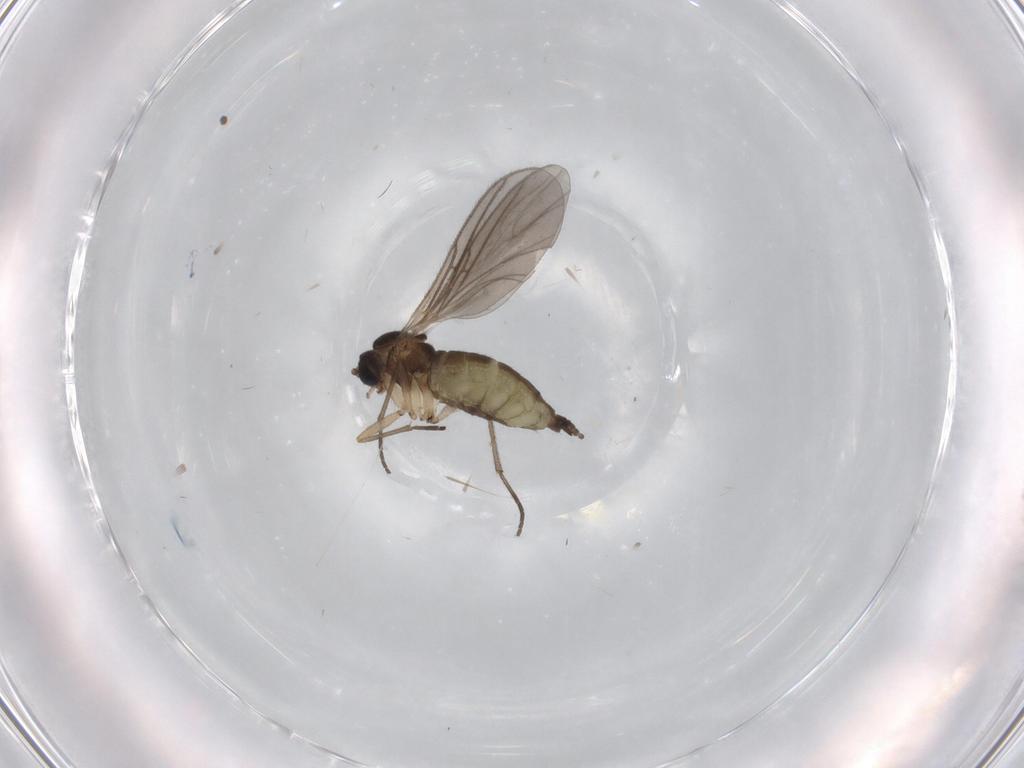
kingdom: Animalia
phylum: Arthropoda
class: Insecta
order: Diptera
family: Sciaridae
